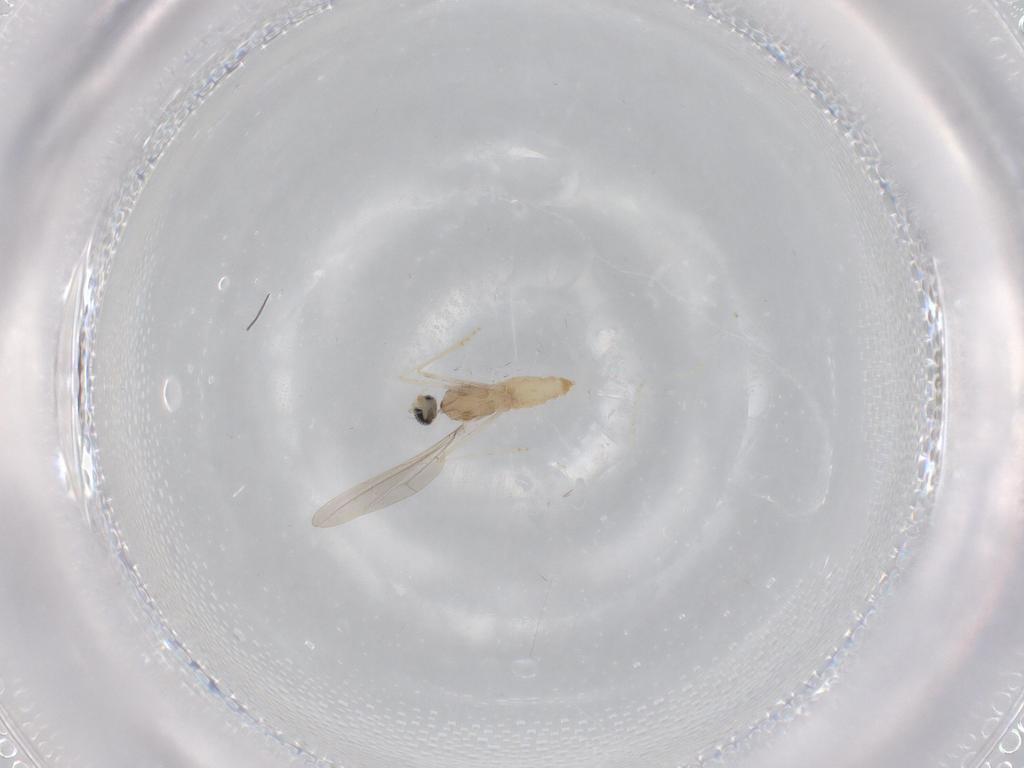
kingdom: Animalia
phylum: Arthropoda
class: Insecta
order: Diptera
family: Cecidomyiidae
